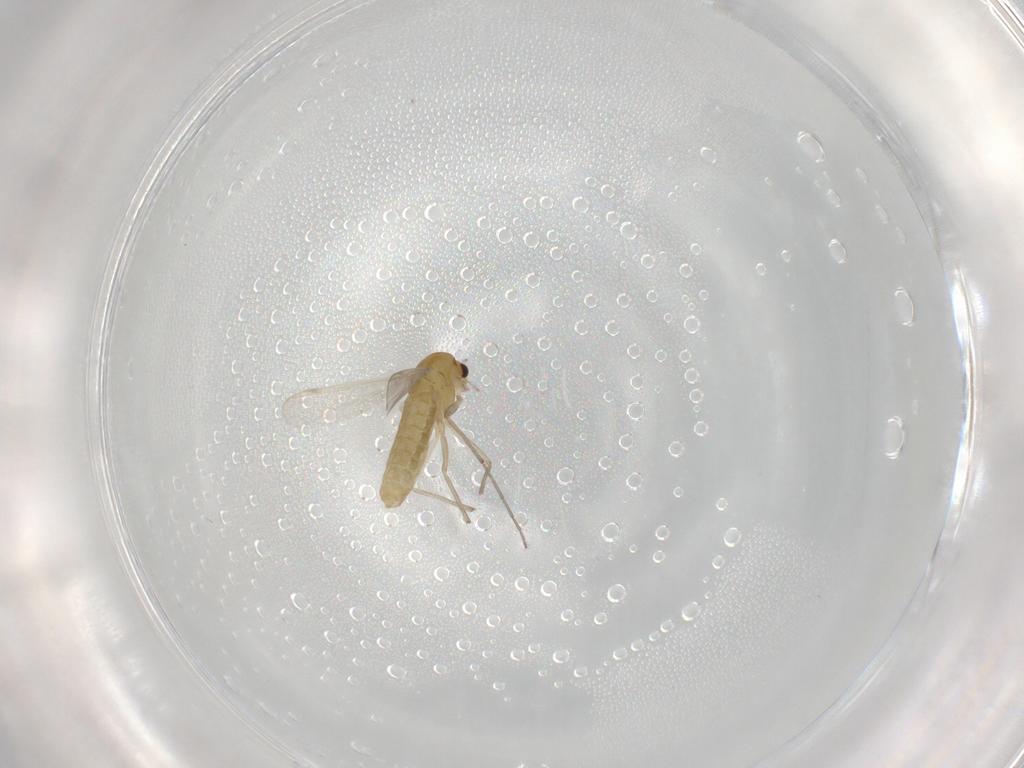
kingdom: Animalia
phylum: Arthropoda
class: Insecta
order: Diptera
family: Chironomidae
